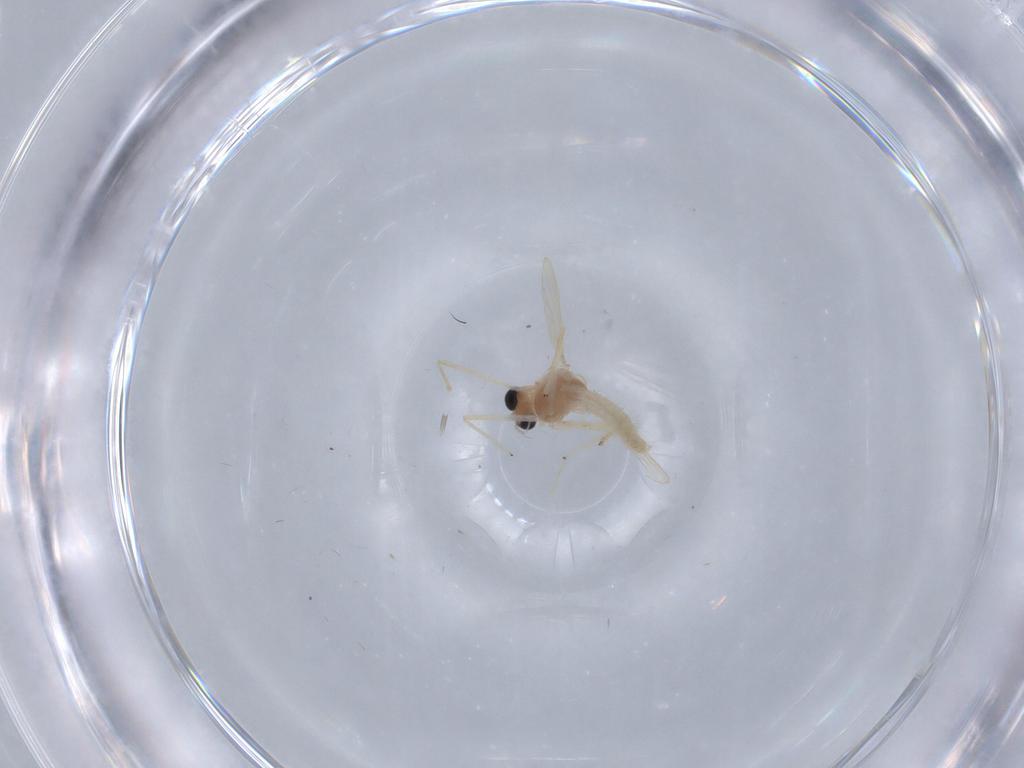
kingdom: Animalia
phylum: Arthropoda
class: Insecta
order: Diptera
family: Chironomidae
